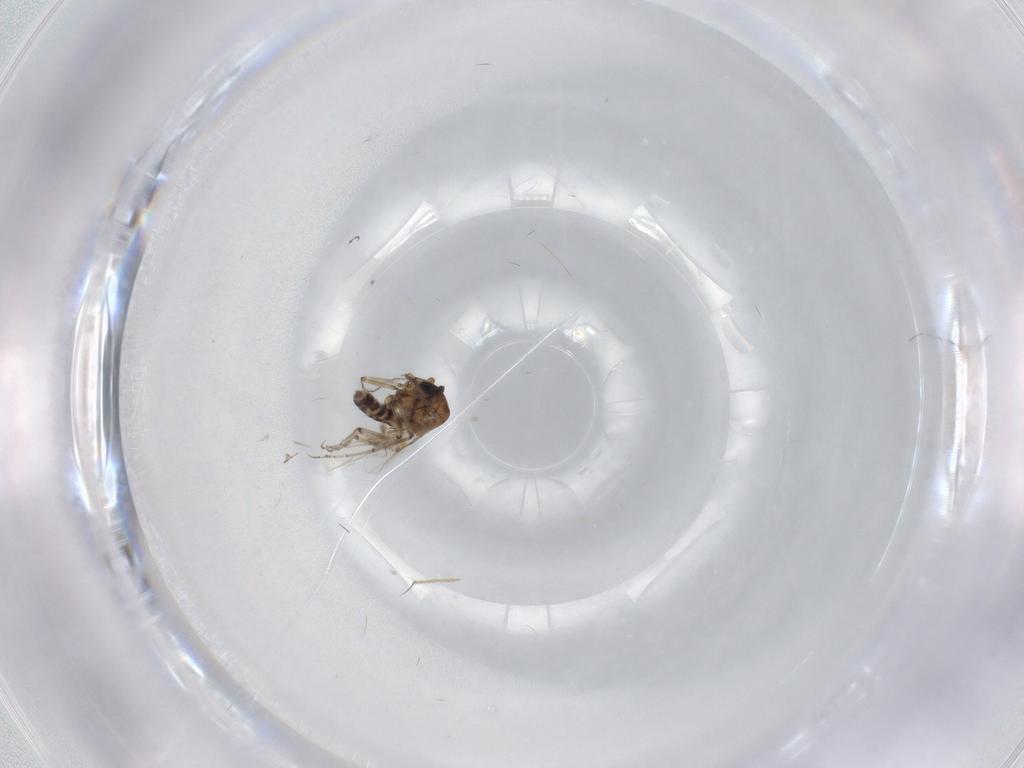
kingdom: Animalia
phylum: Arthropoda
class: Insecta
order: Diptera
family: Ceratopogonidae
